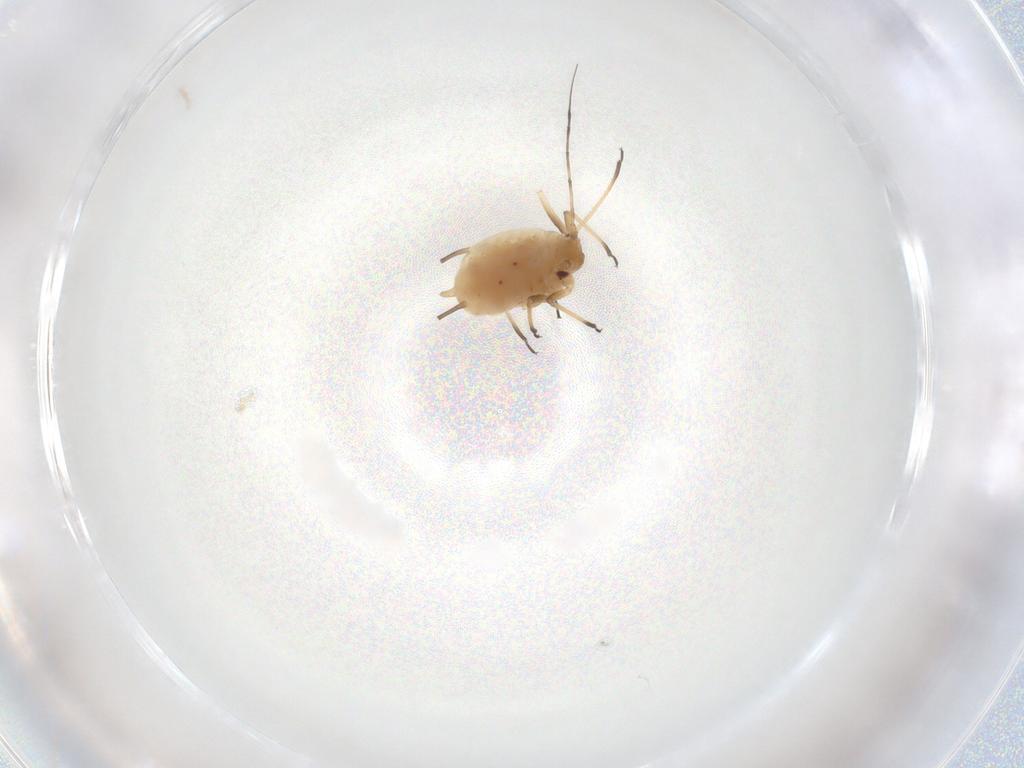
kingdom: Animalia
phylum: Arthropoda
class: Insecta
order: Hemiptera
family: Aphididae
